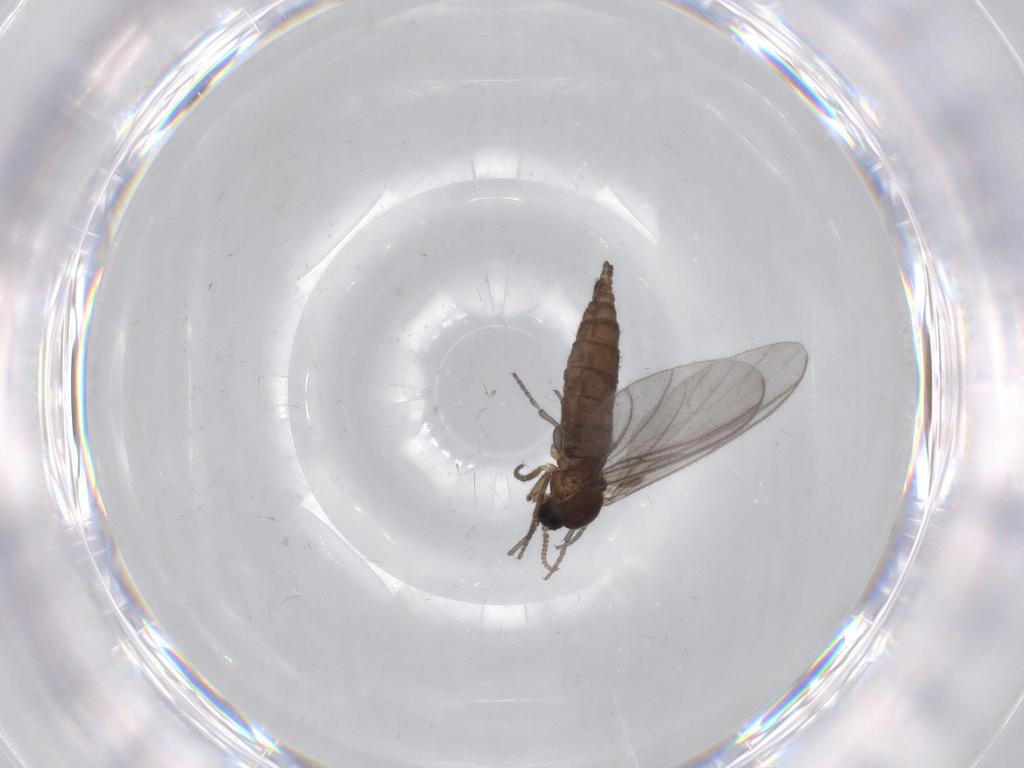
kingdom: Animalia
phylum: Arthropoda
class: Insecta
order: Diptera
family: Sciaridae
